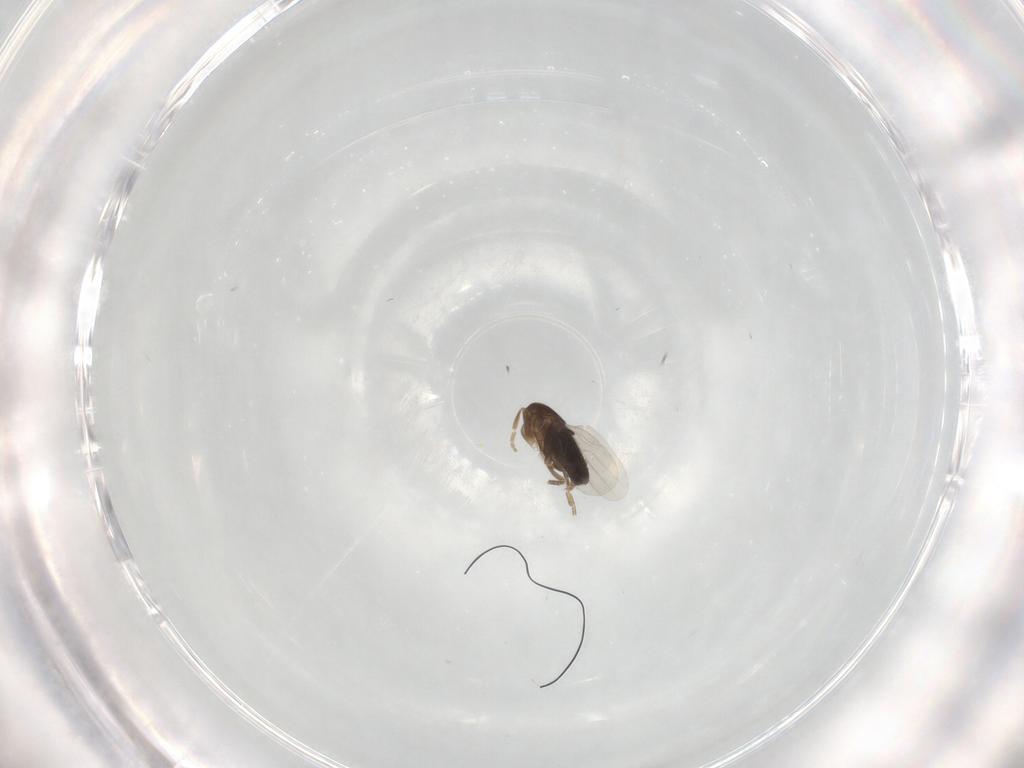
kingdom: Animalia
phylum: Arthropoda
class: Insecta
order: Diptera
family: Phoridae
